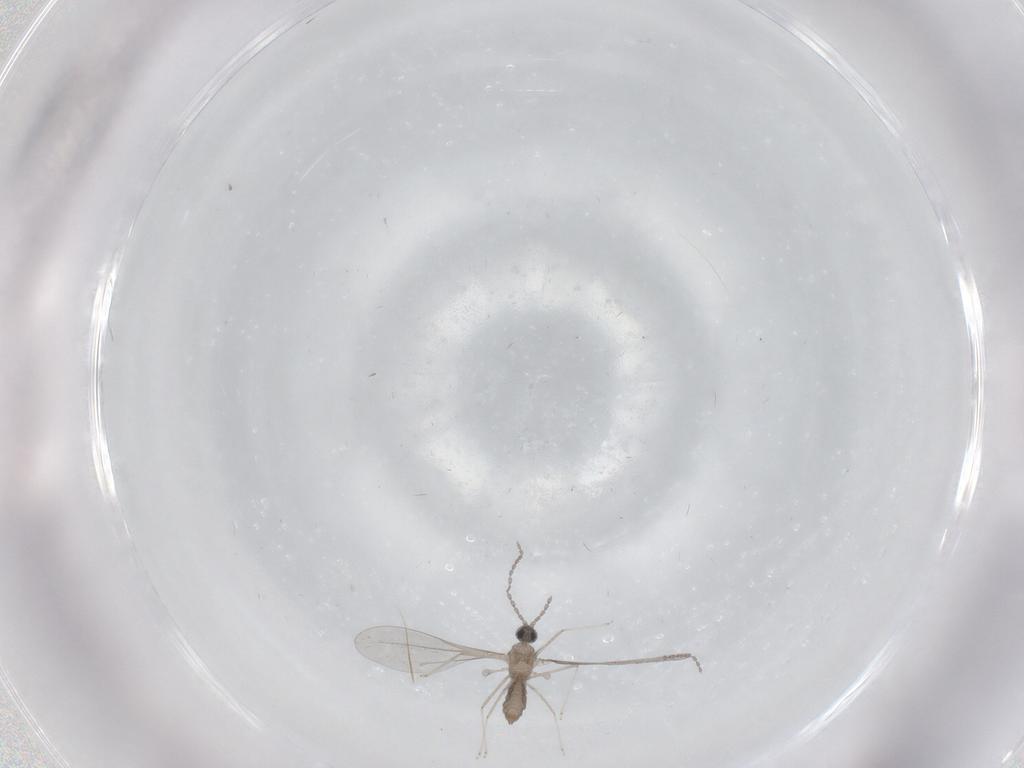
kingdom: Animalia
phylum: Arthropoda
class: Insecta
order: Diptera
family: Cecidomyiidae
